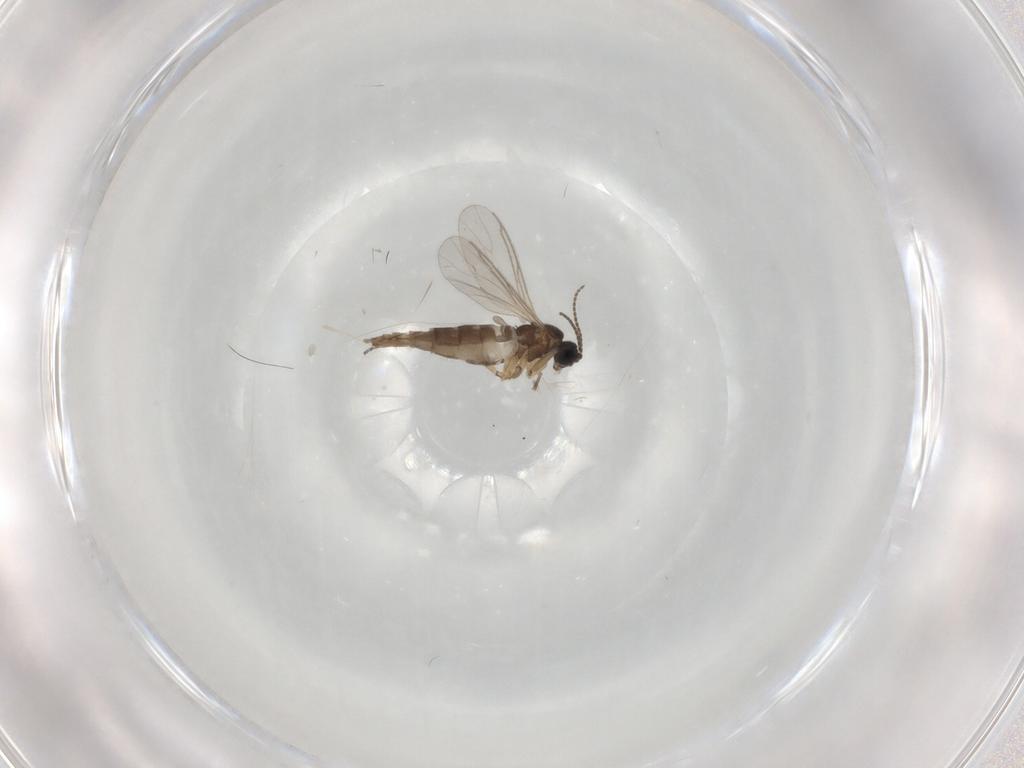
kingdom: Animalia
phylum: Arthropoda
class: Insecta
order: Diptera
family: Sciaridae
